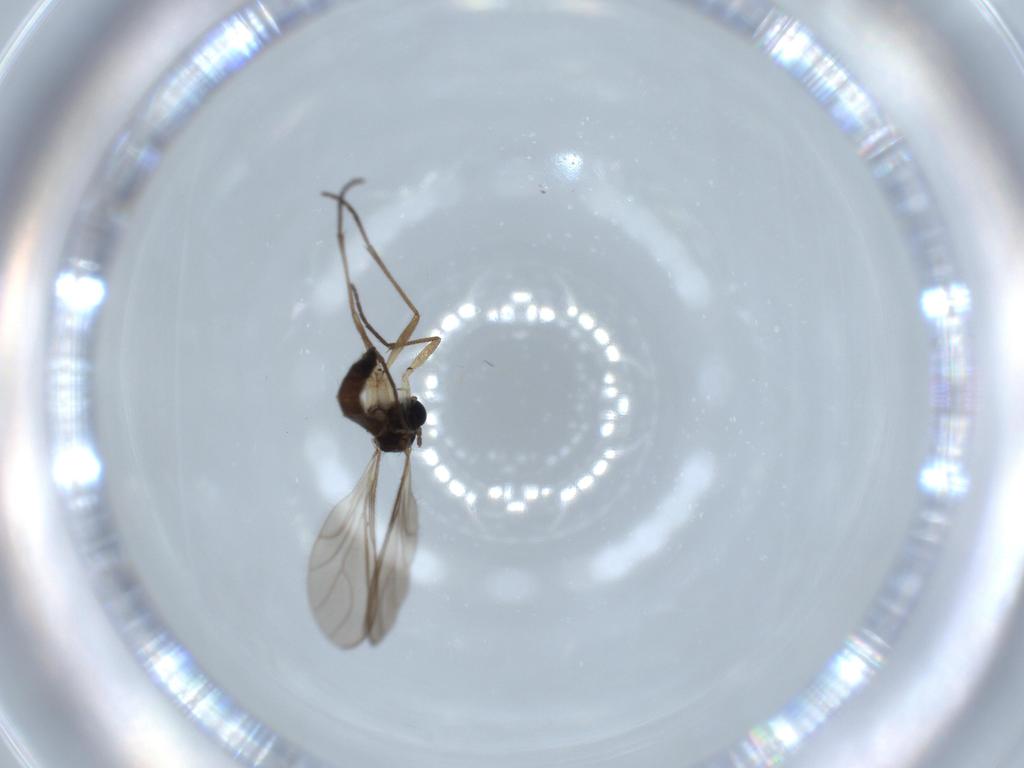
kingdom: Animalia
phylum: Arthropoda
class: Insecta
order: Diptera
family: Sciaridae
